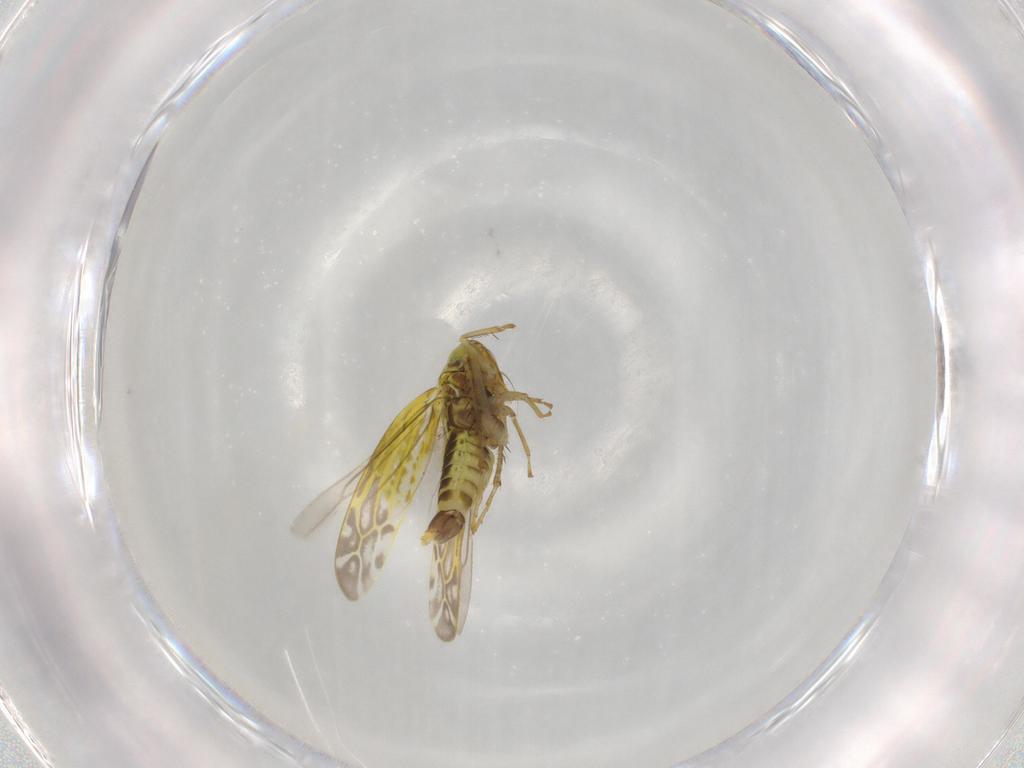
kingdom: Animalia
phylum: Arthropoda
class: Insecta
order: Hemiptera
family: Cicadellidae
